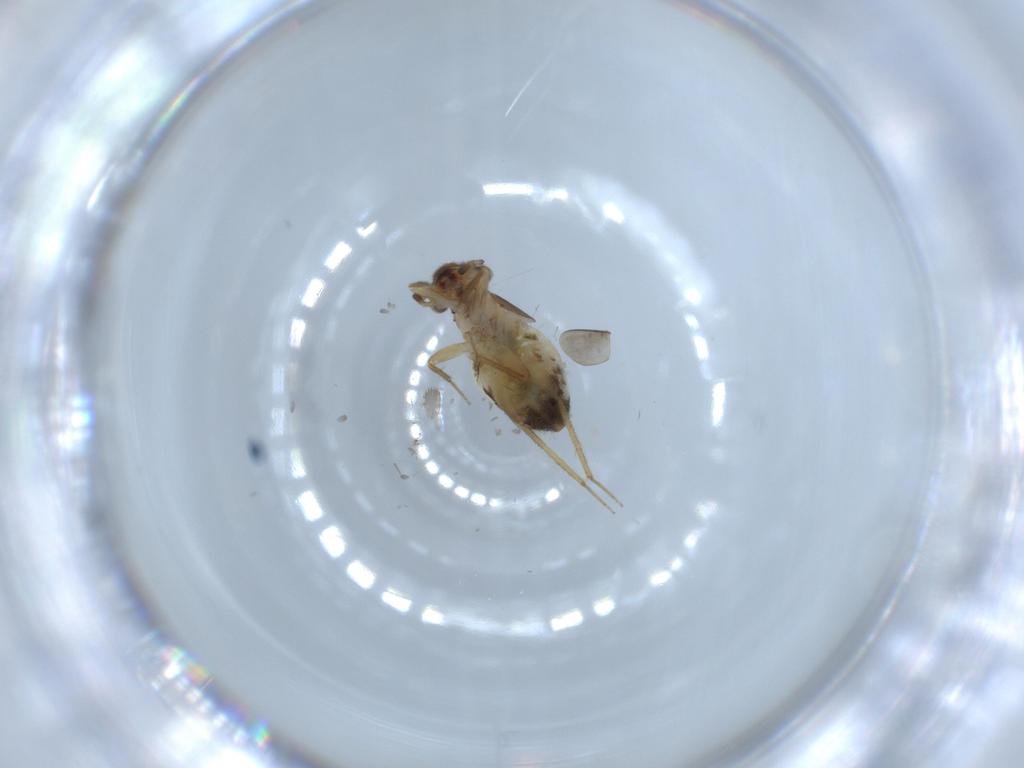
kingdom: Animalia
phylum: Arthropoda
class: Insecta
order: Psocodea
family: Lepidopsocidae
